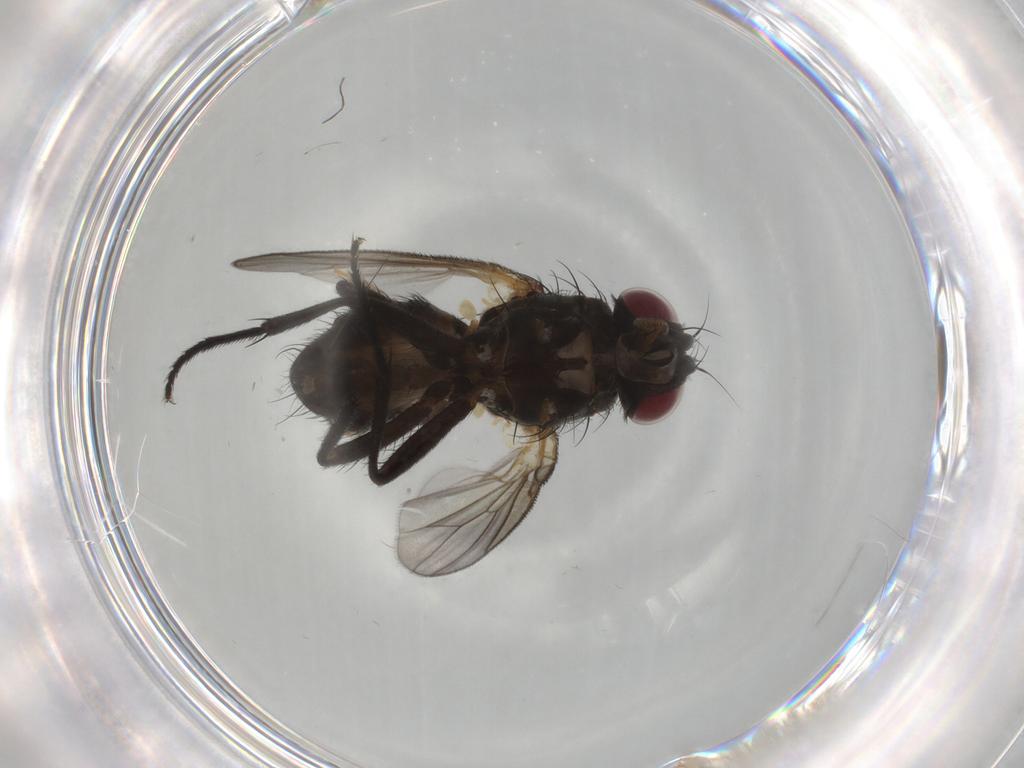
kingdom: Animalia
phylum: Arthropoda
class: Insecta
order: Diptera
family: Fannia
